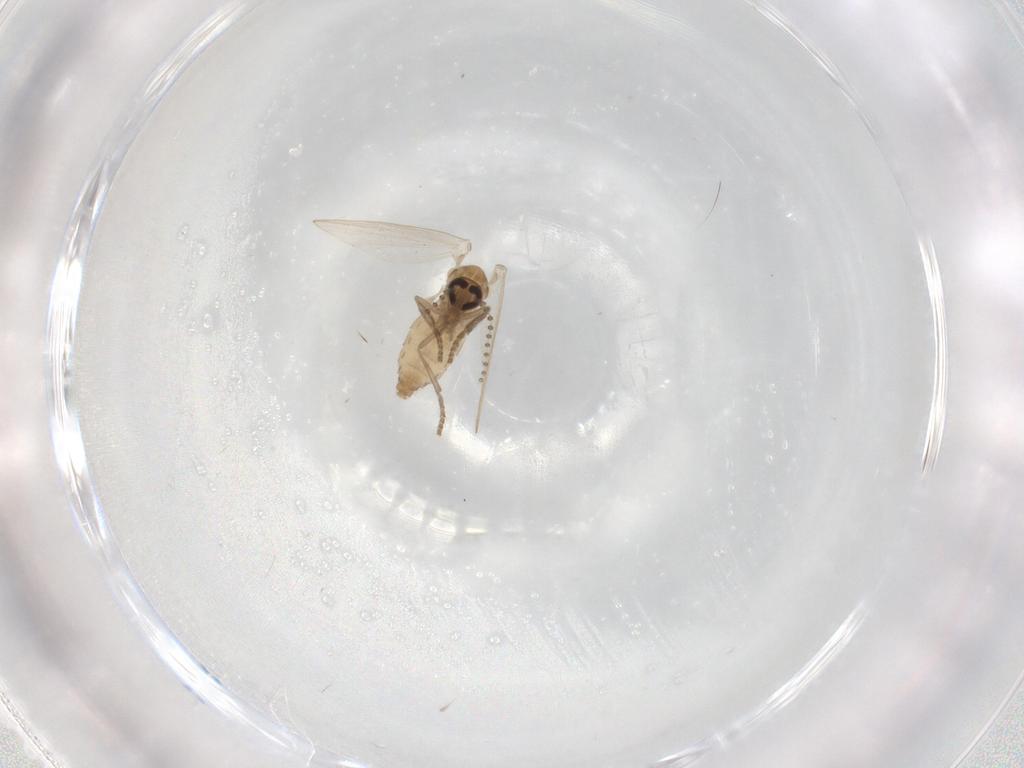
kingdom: Animalia
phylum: Arthropoda
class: Insecta
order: Diptera
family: Psychodidae
